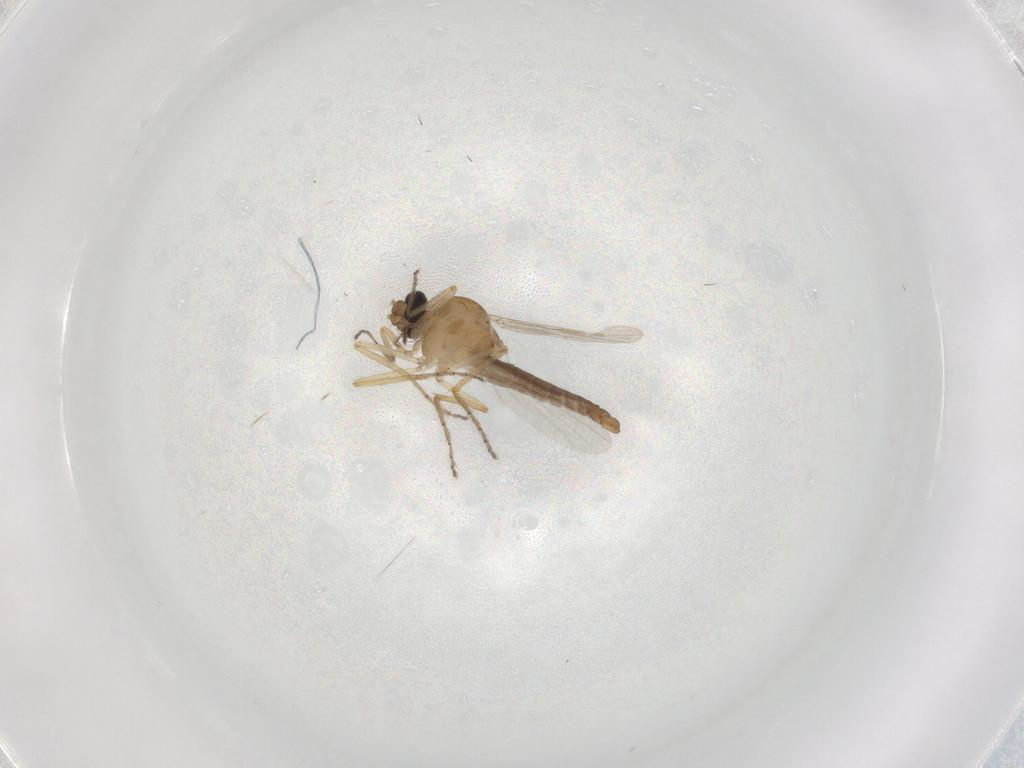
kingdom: Animalia
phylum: Arthropoda
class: Insecta
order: Diptera
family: Ceratopogonidae
